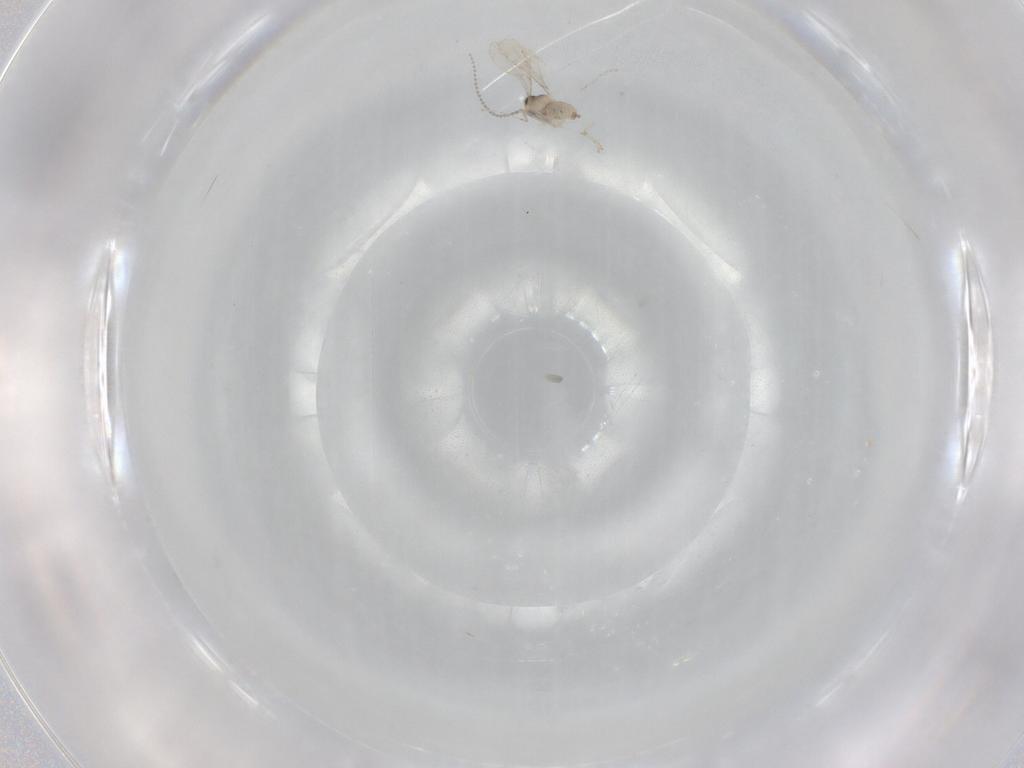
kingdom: Animalia
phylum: Arthropoda
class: Insecta
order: Diptera
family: Cecidomyiidae
